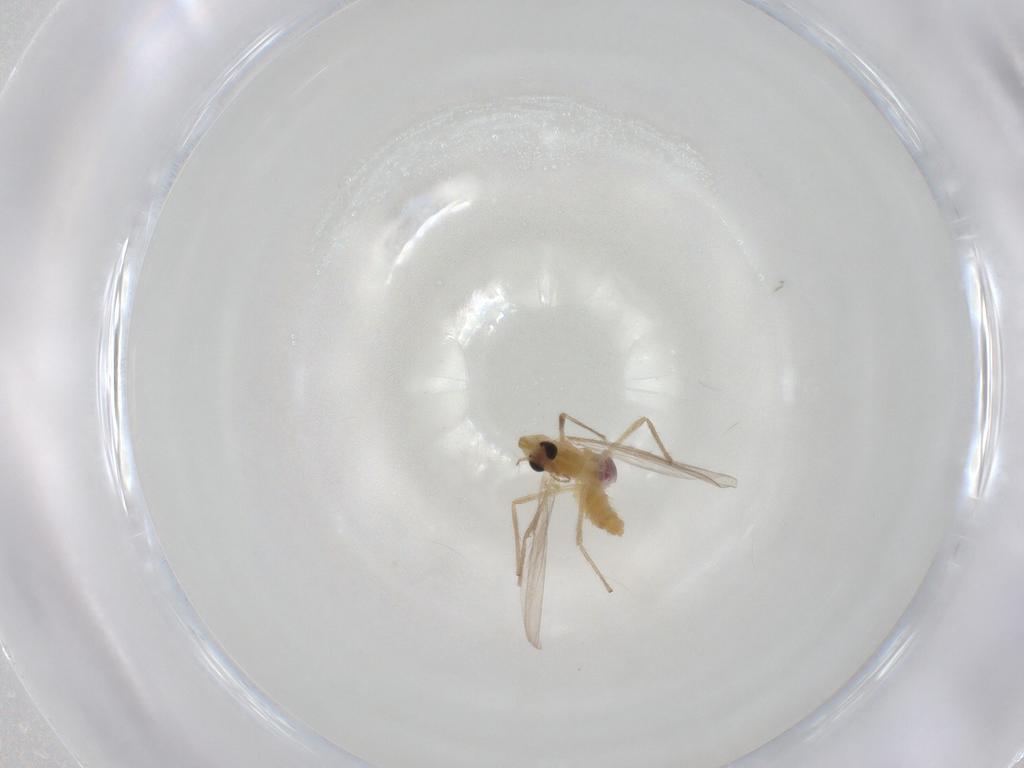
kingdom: Animalia
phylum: Arthropoda
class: Insecta
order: Diptera
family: Chironomidae
